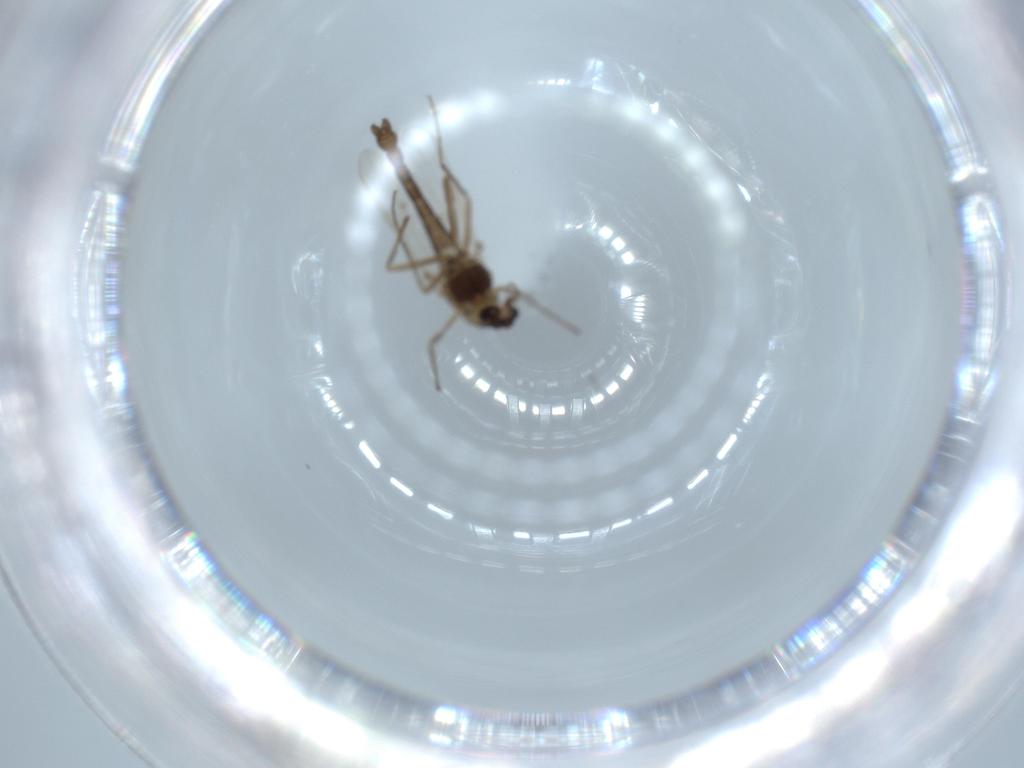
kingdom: Animalia
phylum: Arthropoda
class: Insecta
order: Diptera
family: Chironomidae
